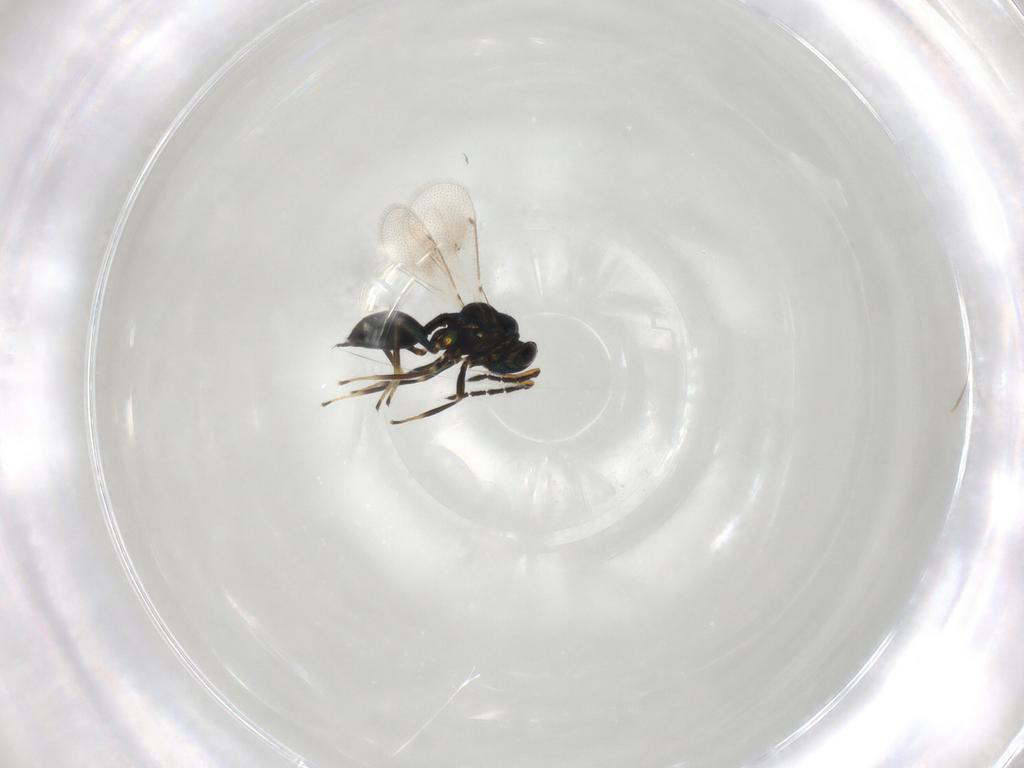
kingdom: Animalia
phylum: Arthropoda
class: Insecta
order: Hymenoptera
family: Eulophidae
